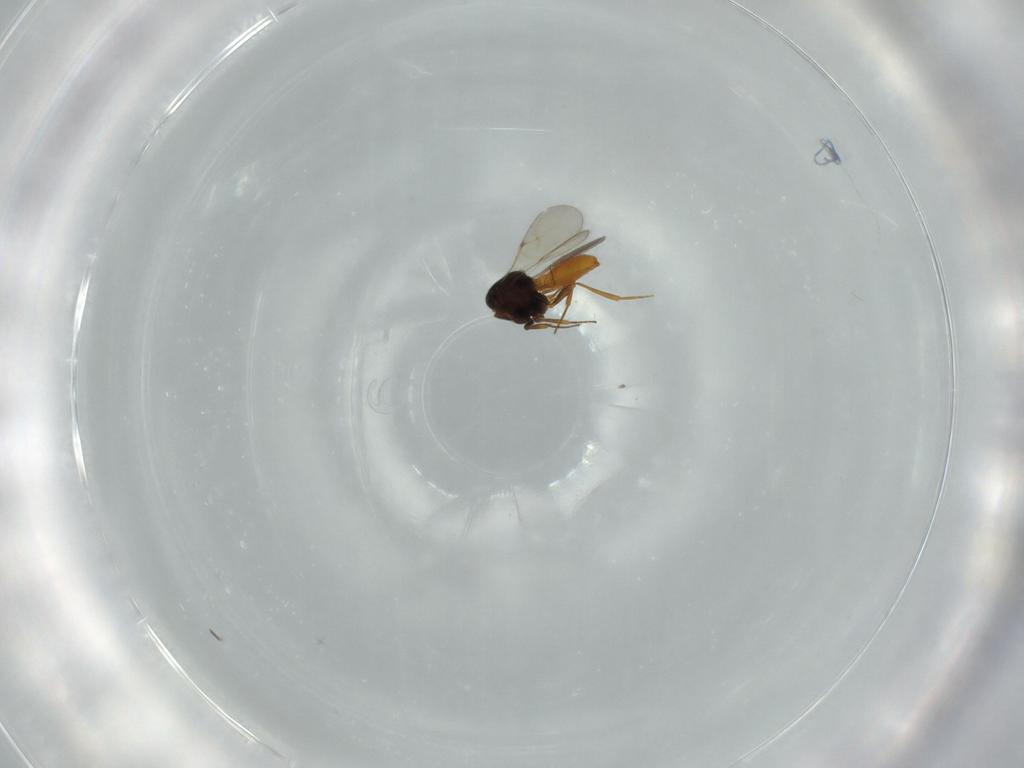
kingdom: Animalia
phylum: Arthropoda
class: Insecta
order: Hymenoptera
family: Scelionidae
